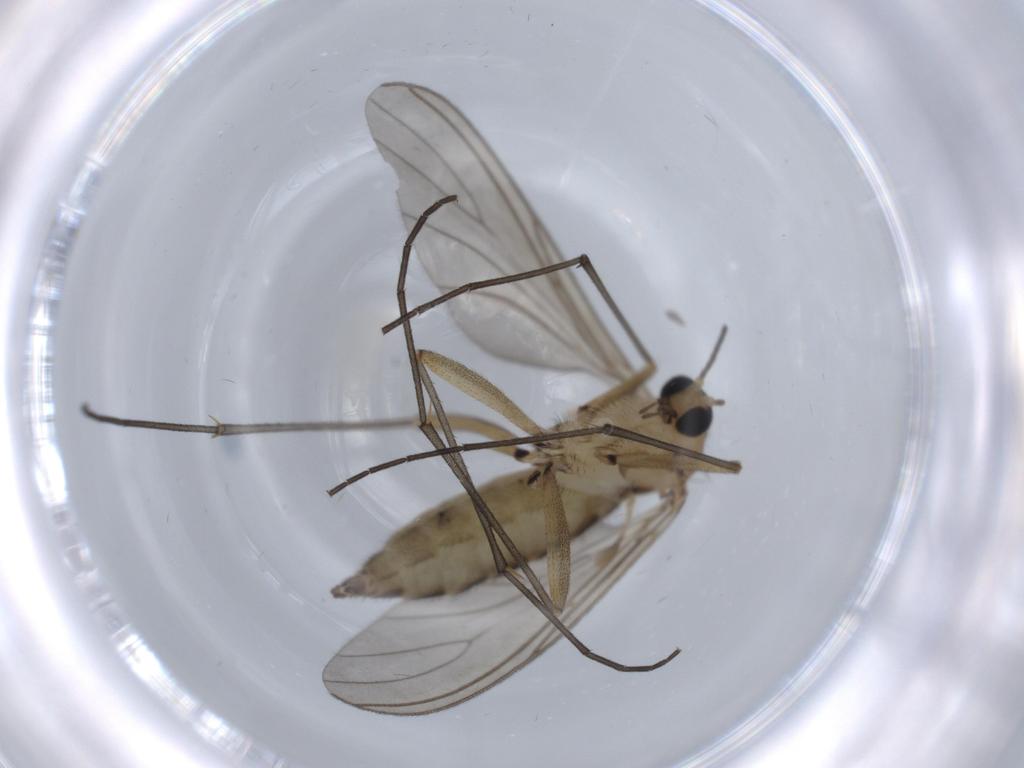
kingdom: Animalia
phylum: Arthropoda
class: Insecta
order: Diptera
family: Sciaridae
